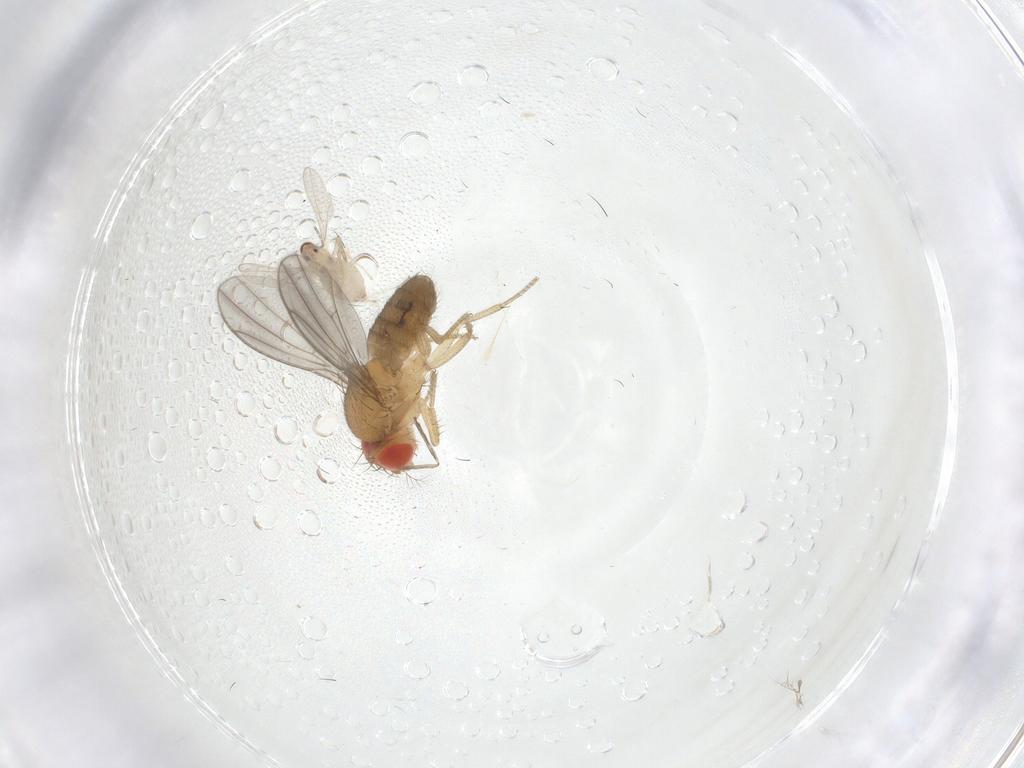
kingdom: Animalia
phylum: Arthropoda
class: Insecta
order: Diptera
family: Drosophilidae
